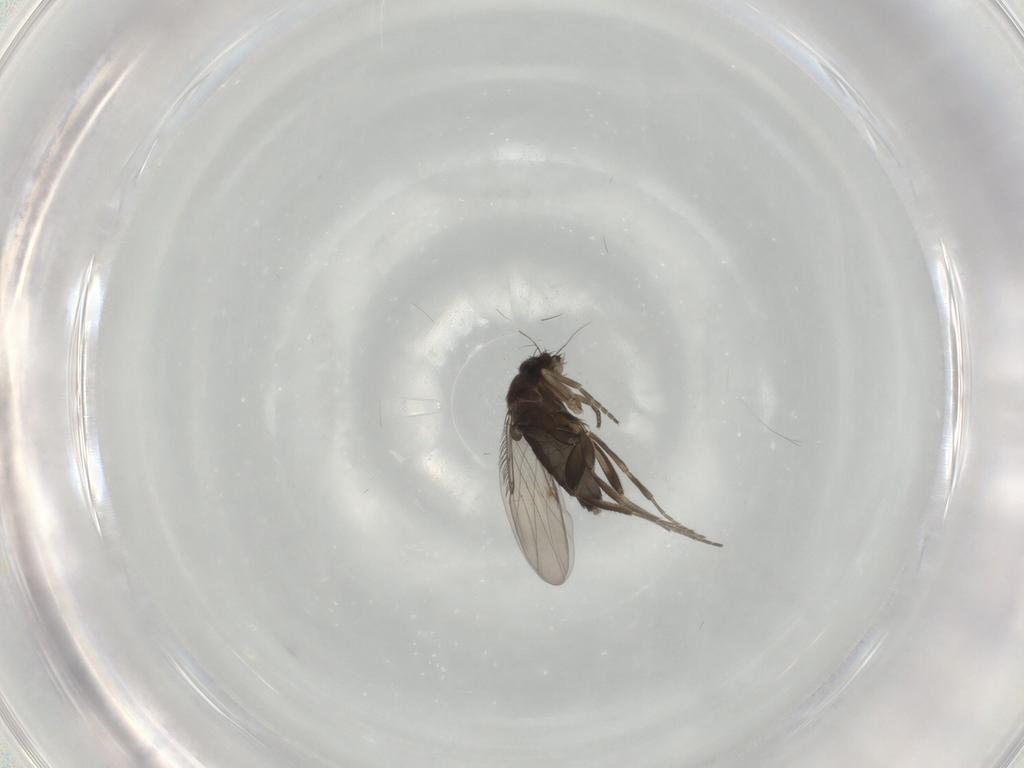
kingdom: Animalia
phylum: Arthropoda
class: Insecta
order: Diptera
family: Phoridae
